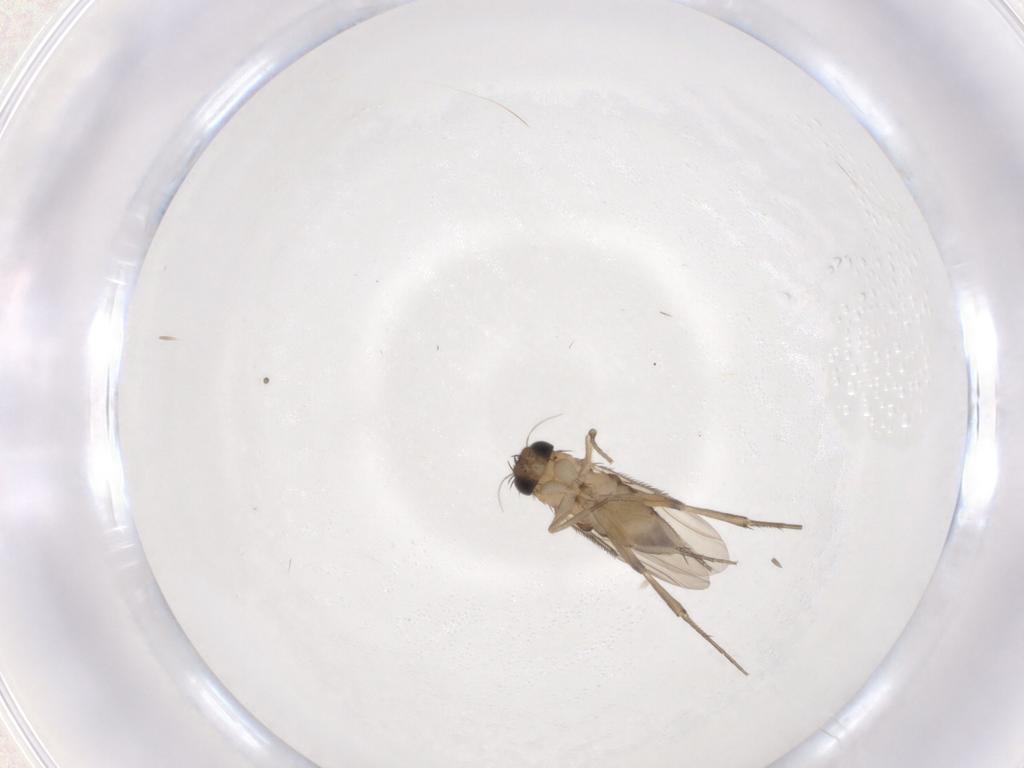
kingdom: Animalia
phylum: Arthropoda
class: Insecta
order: Diptera
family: Phoridae
